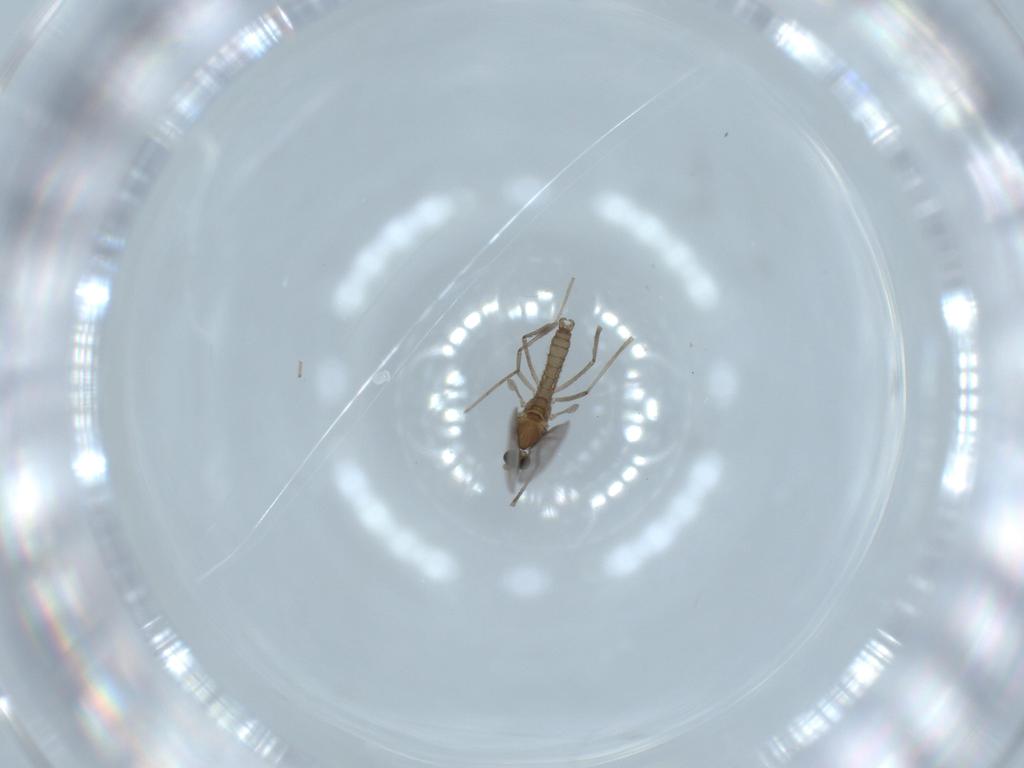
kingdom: Animalia
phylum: Arthropoda
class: Insecta
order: Diptera
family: Cecidomyiidae
